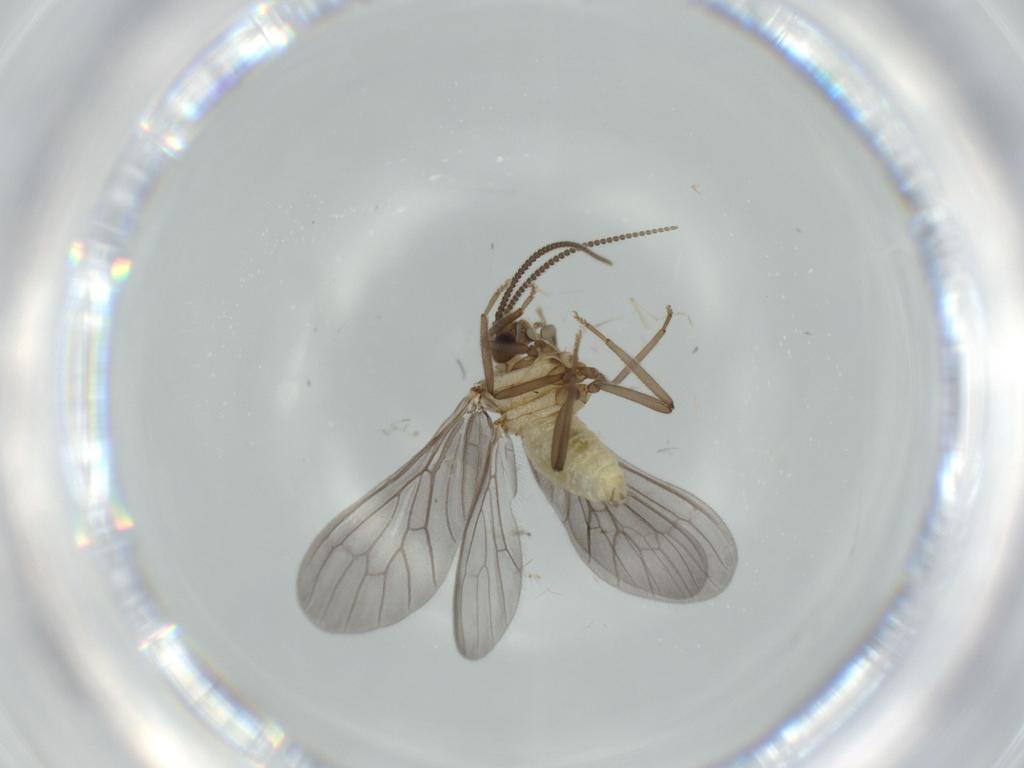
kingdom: Animalia
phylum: Arthropoda
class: Insecta
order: Neuroptera
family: Coniopterygidae
